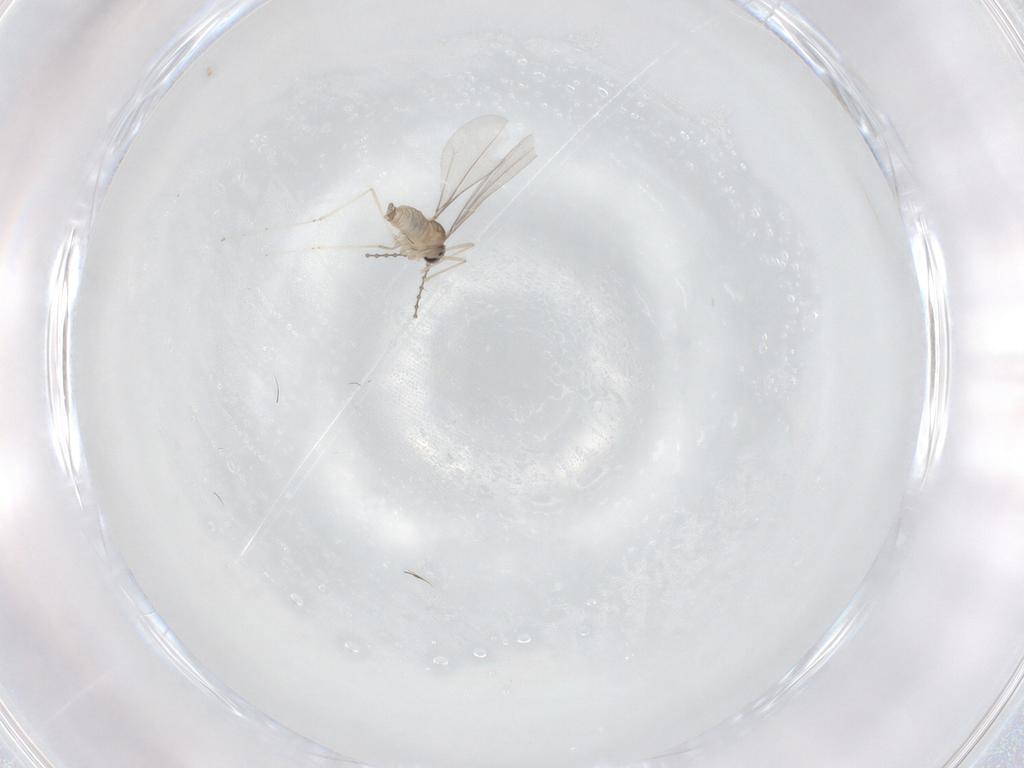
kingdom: Animalia
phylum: Arthropoda
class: Insecta
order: Diptera
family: Cecidomyiidae
